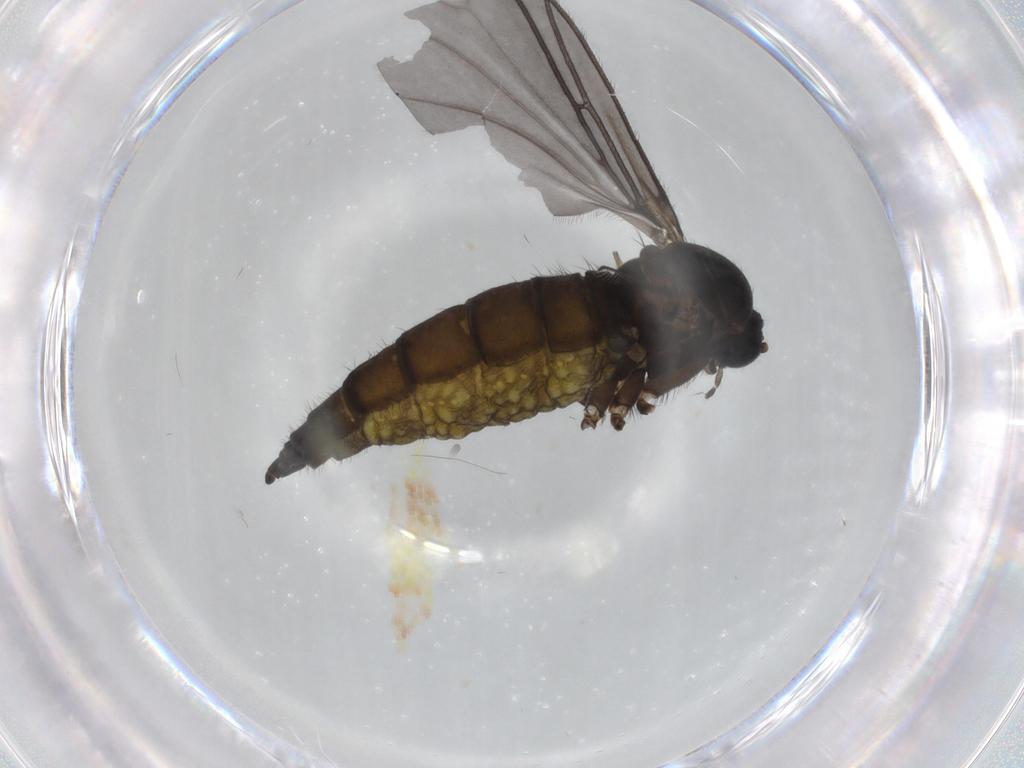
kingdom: Animalia
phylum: Arthropoda
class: Insecta
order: Diptera
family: Sciaridae
